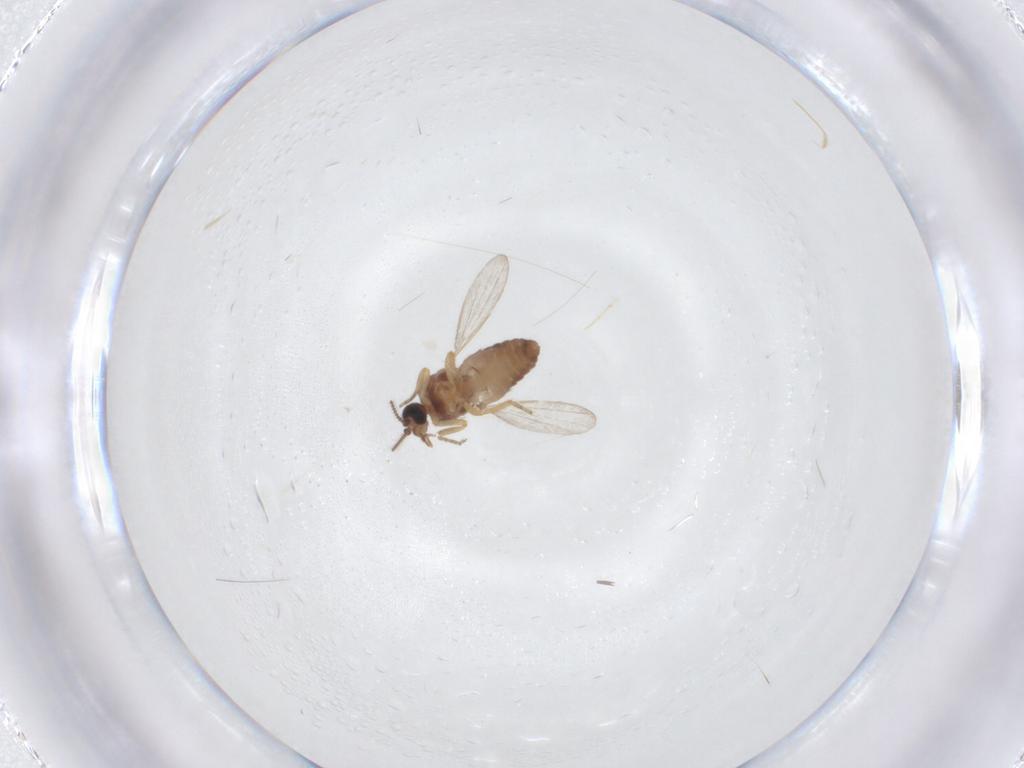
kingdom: Animalia
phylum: Arthropoda
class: Insecta
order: Diptera
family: Ceratopogonidae
